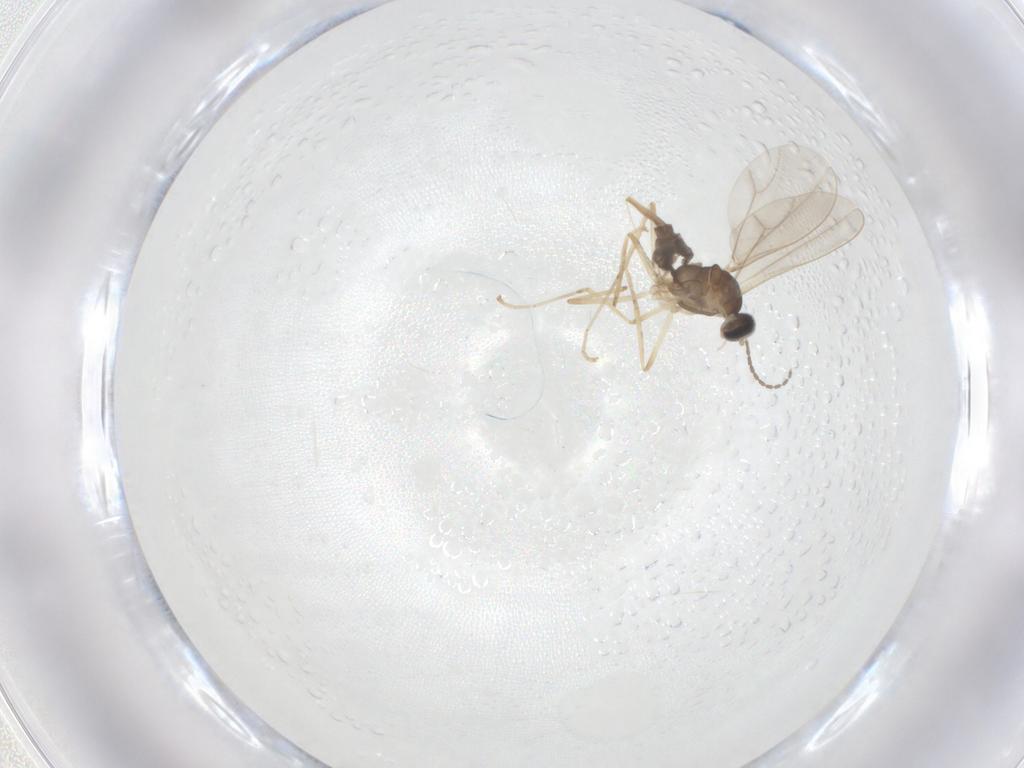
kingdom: Animalia
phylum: Arthropoda
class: Insecta
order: Diptera
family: Cecidomyiidae
